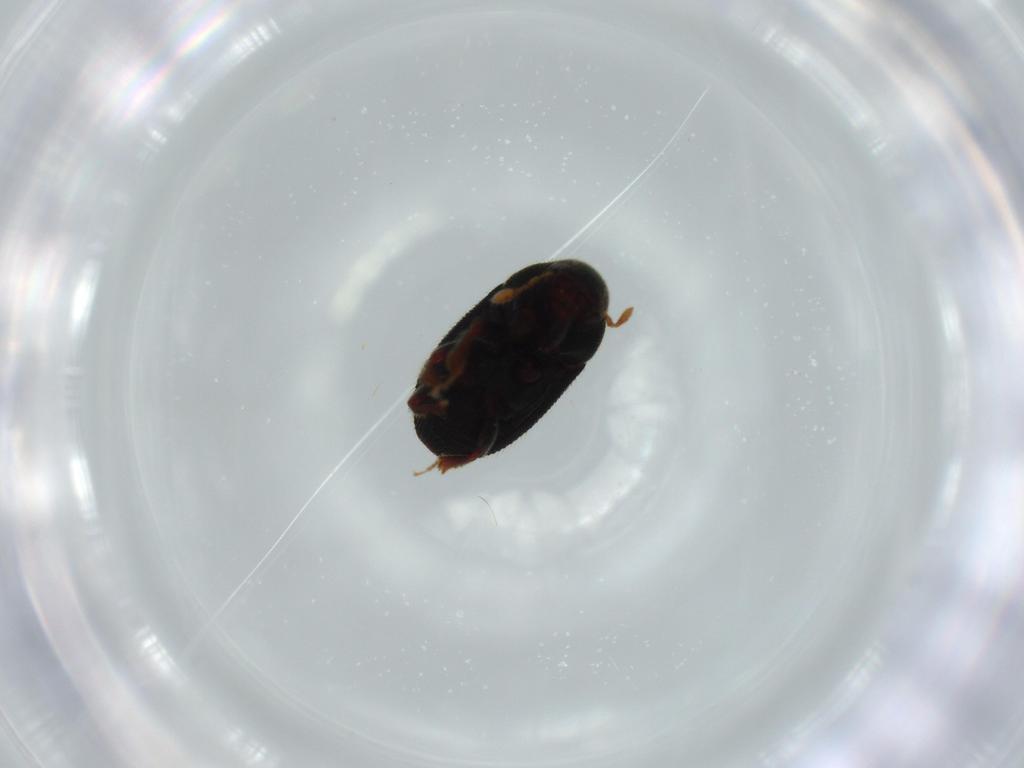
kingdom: Animalia
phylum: Arthropoda
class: Insecta
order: Coleoptera
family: Curculionidae
